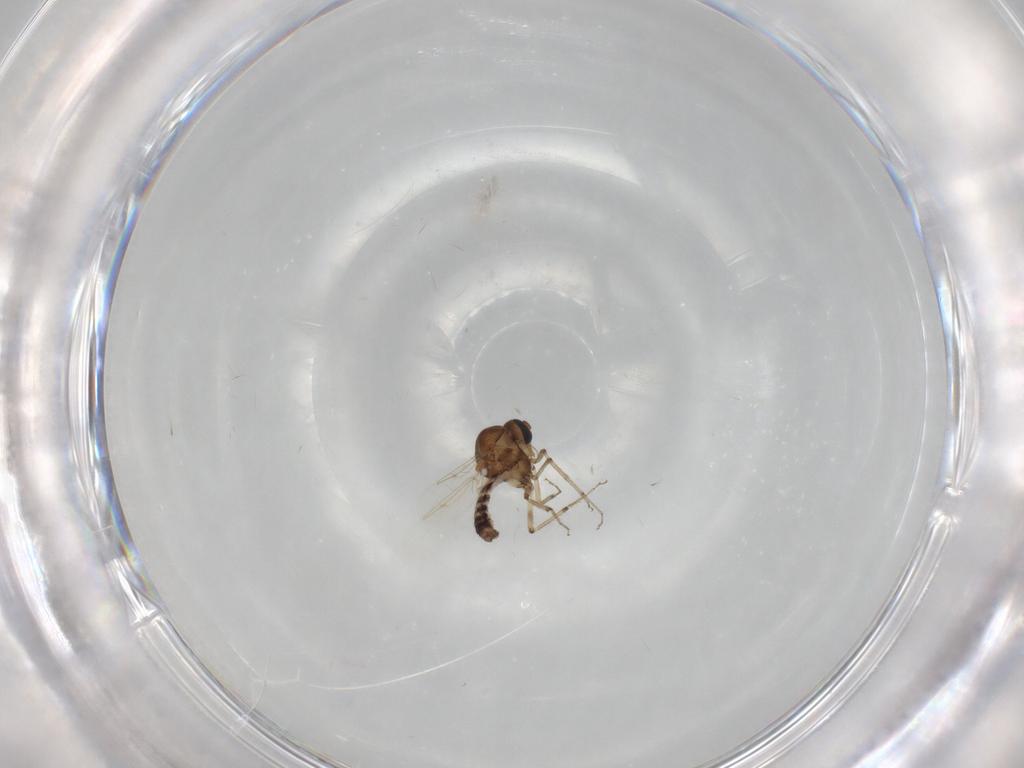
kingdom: Animalia
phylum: Arthropoda
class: Insecta
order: Diptera
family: Ceratopogonidae
